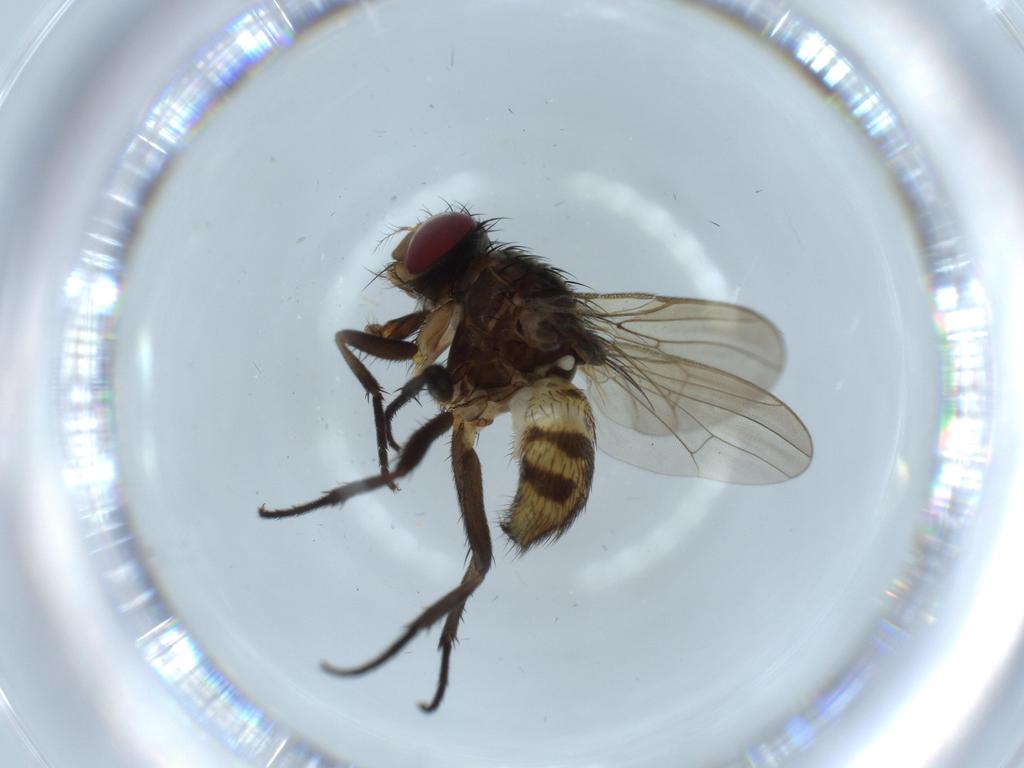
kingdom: Animalia
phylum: Arthropoda
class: Insecta
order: Diptera
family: Anthomyiidae
